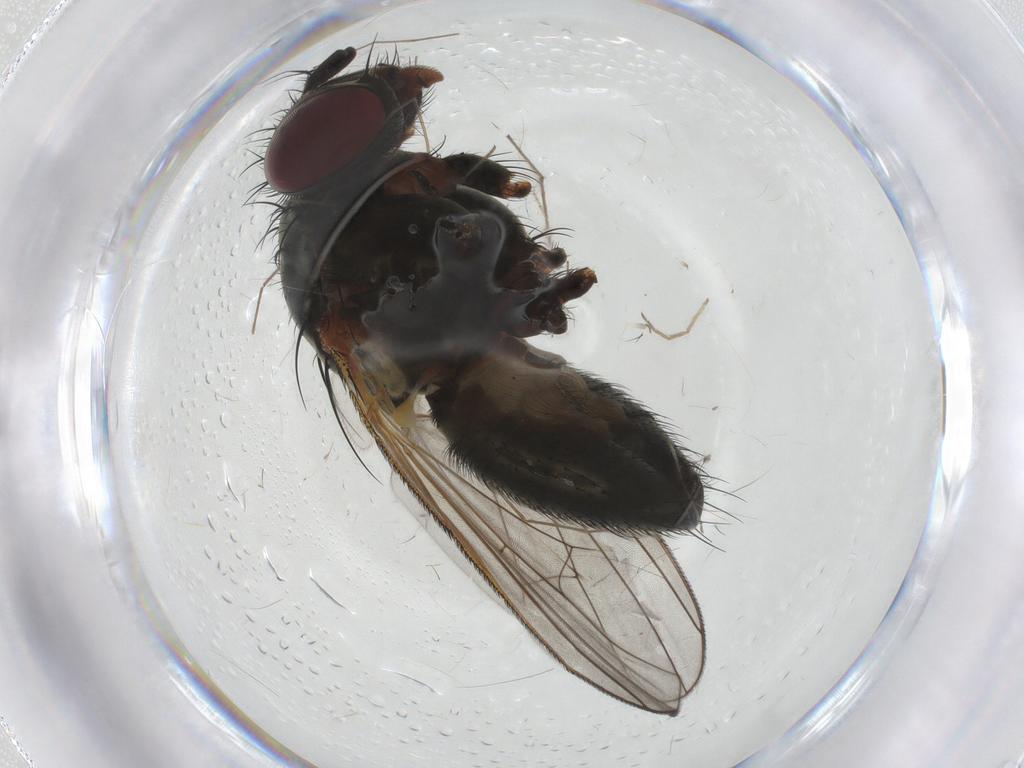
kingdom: Animalia
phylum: Arthropoda
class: Insecta
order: Diptera
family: Fannia
